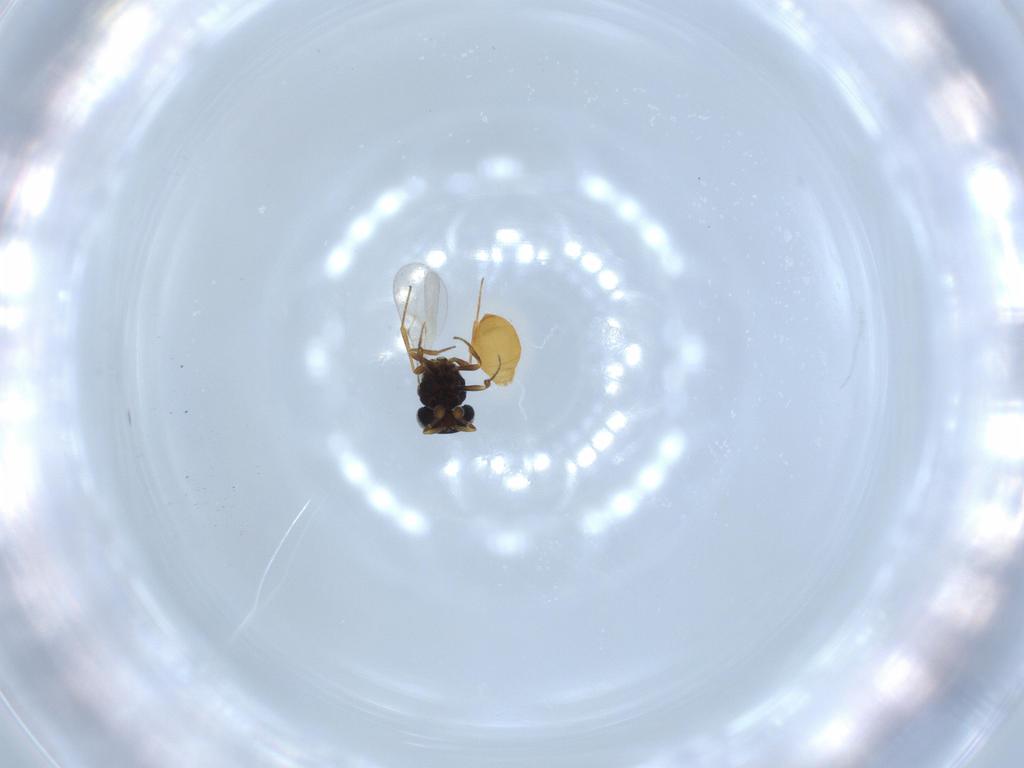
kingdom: Animalia
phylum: Arthropoda
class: Insecta
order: Hymenoptera
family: Scelionidae
